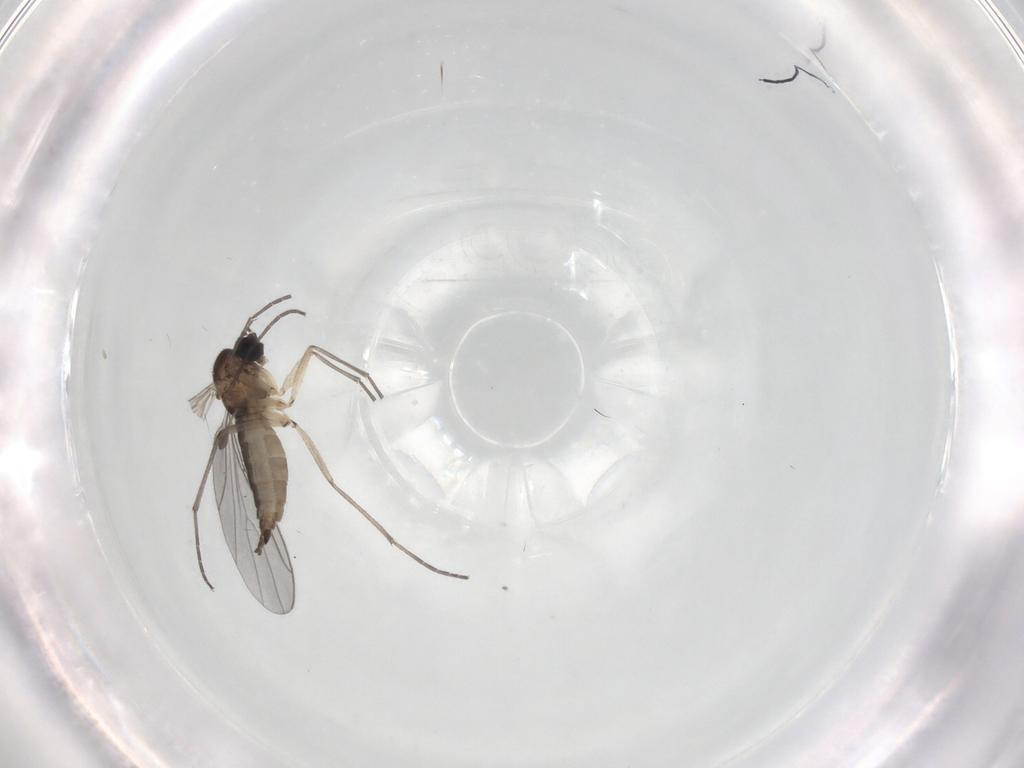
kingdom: Animalia
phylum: Arthropoda
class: Insecta
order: Diptera
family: Sciaridae
